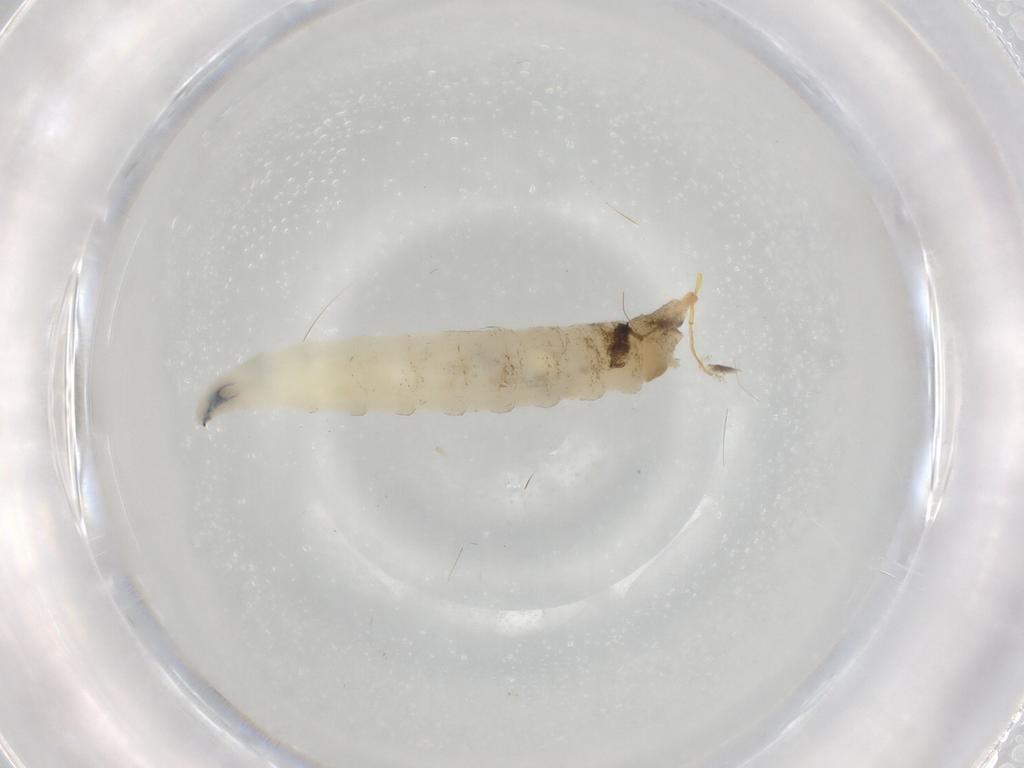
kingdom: Animalia
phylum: Arthropoda
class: Insecta
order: Diptera
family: Drosophilidae
